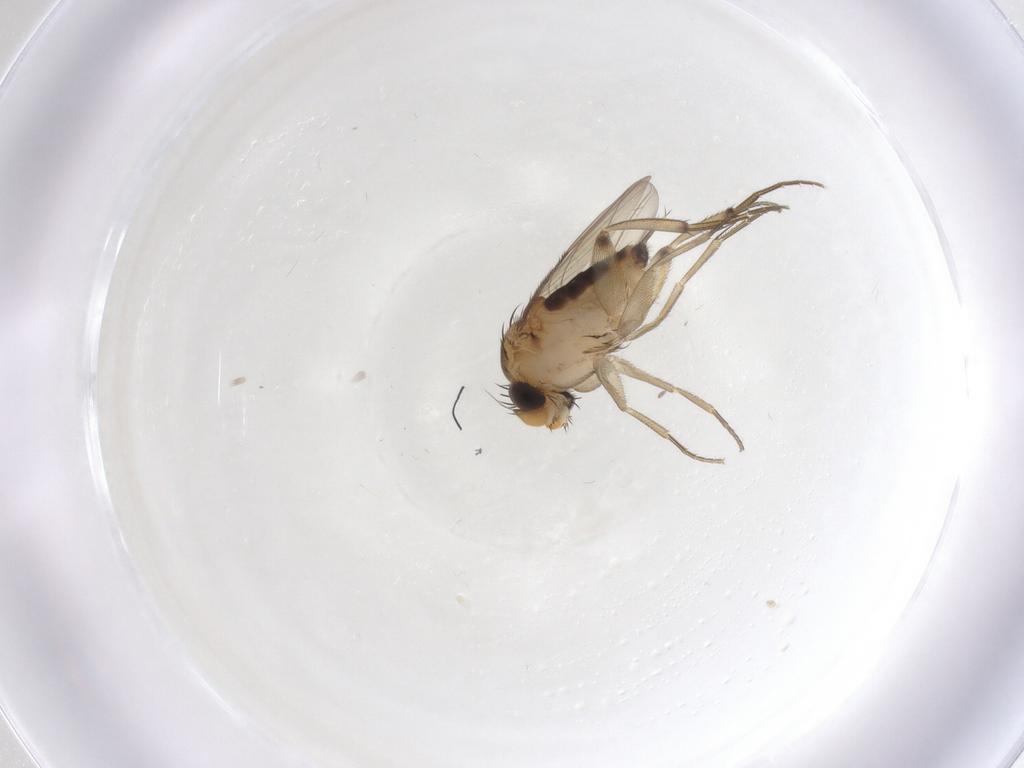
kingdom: Animalia
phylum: Arthropoda
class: Insecta
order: Diptera
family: Phoridae
